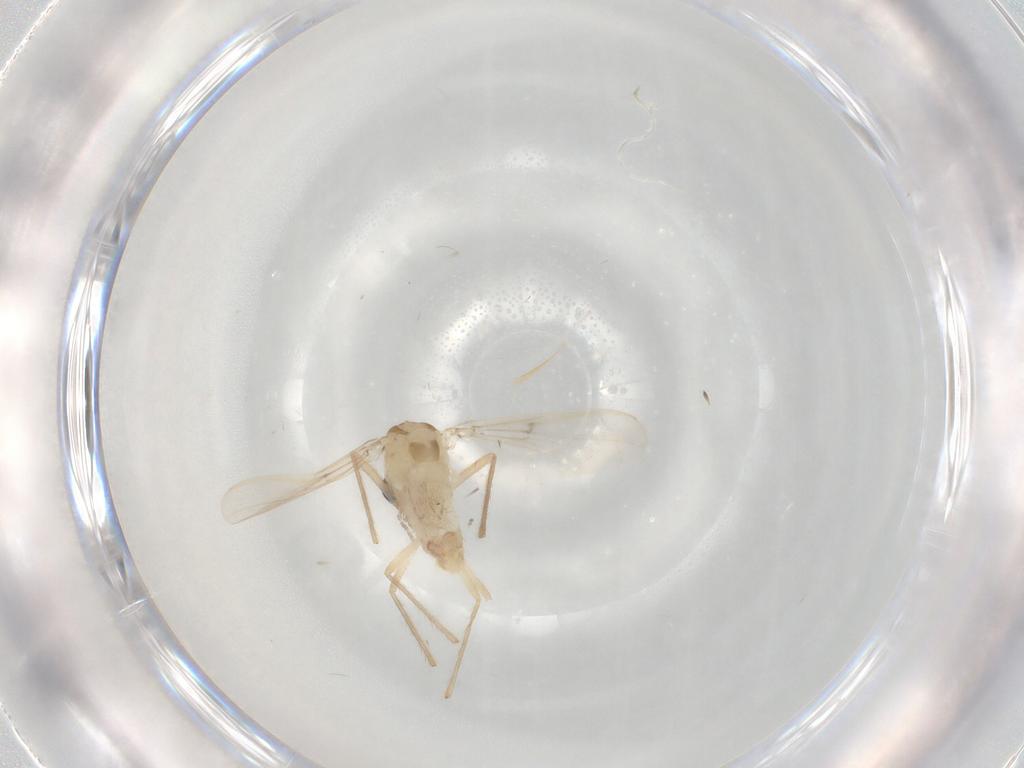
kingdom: Animalia
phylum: Arthropoda
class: Insecta
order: Diptera
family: Chironomidae
